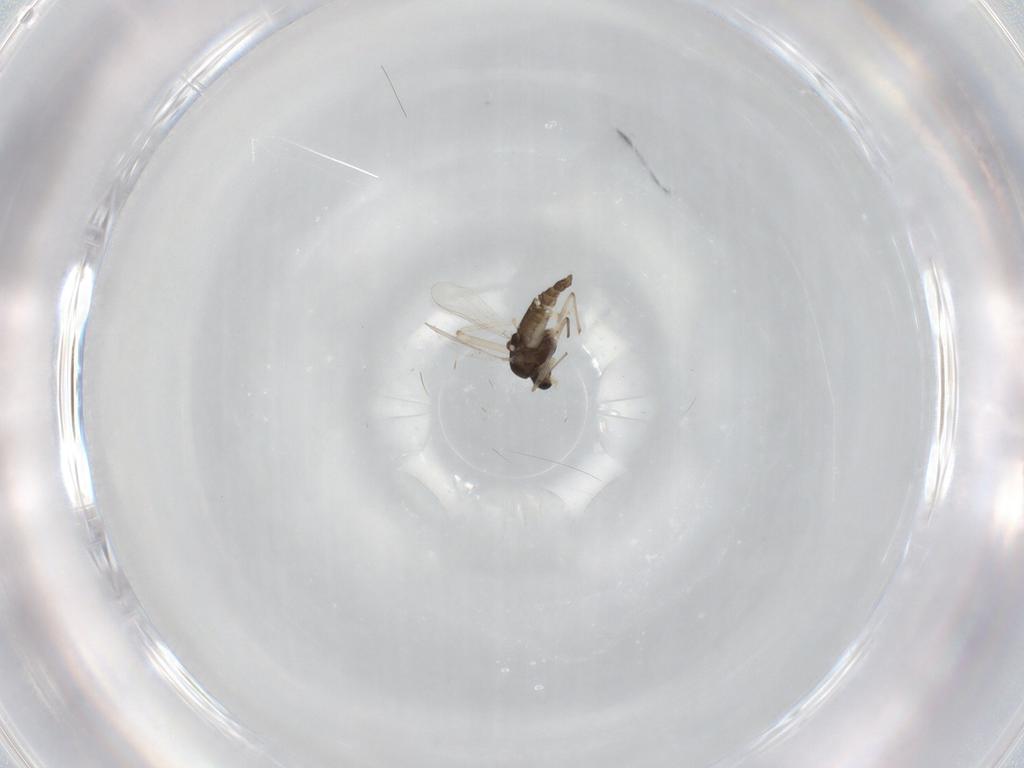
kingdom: Animalia
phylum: Arthropoda
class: Insecta
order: Diptera
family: Chironomidae
